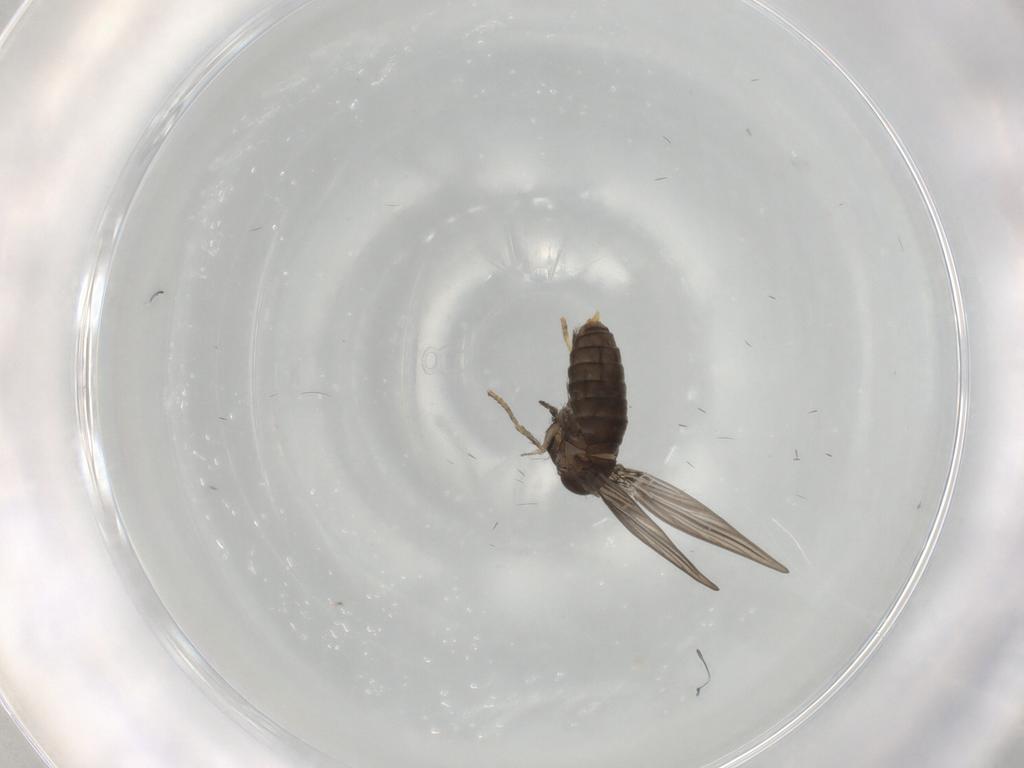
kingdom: Animalia
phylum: Arthropoda
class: Insecta
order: Diptera
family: Psychodidae
